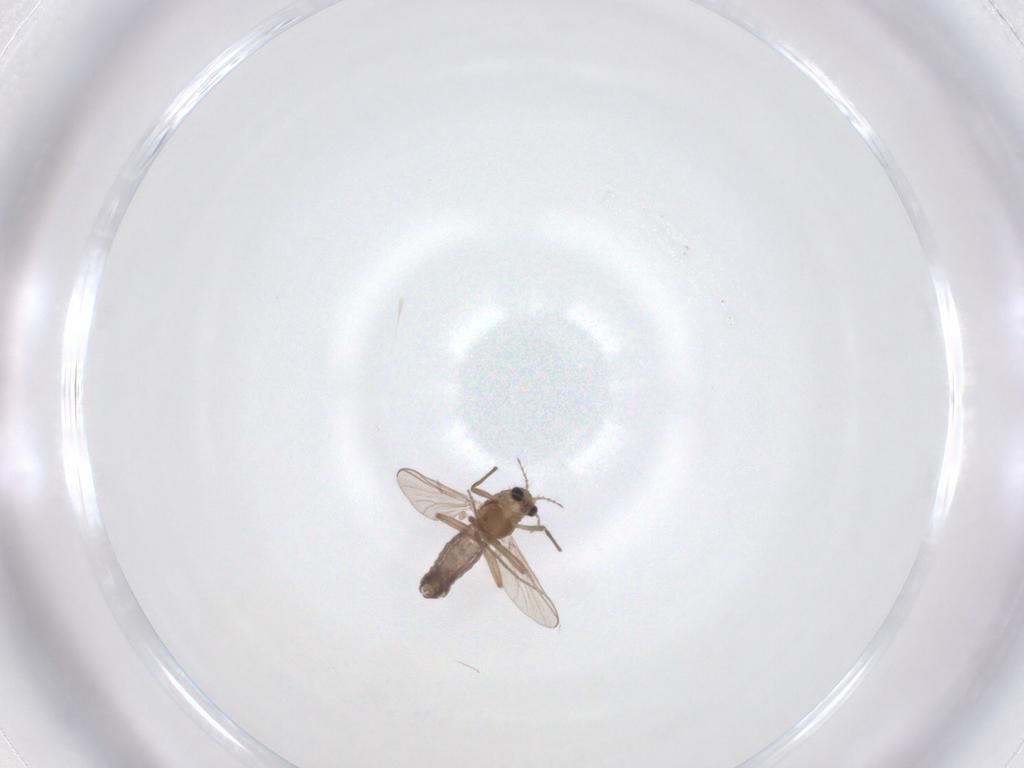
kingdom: Animalia
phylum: Arthropoda
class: Insecta
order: Diptera
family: Chironomidae
